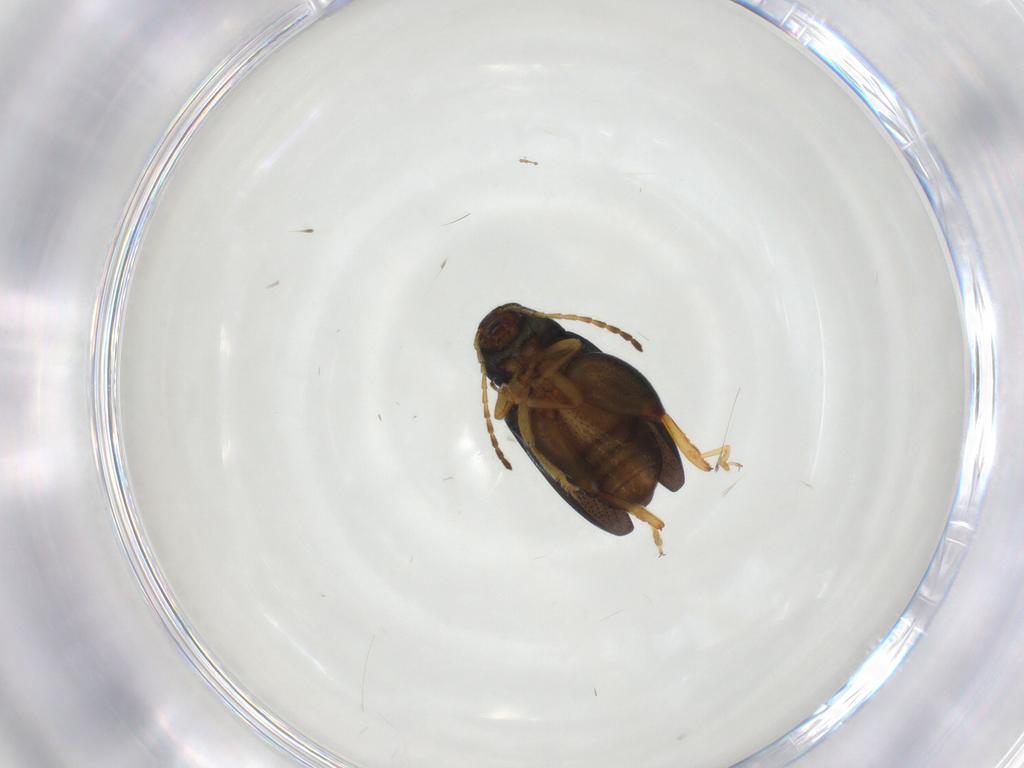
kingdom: Animalia
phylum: Arthropoda
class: Insecta
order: Coleoptera
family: Chrysomelidae
